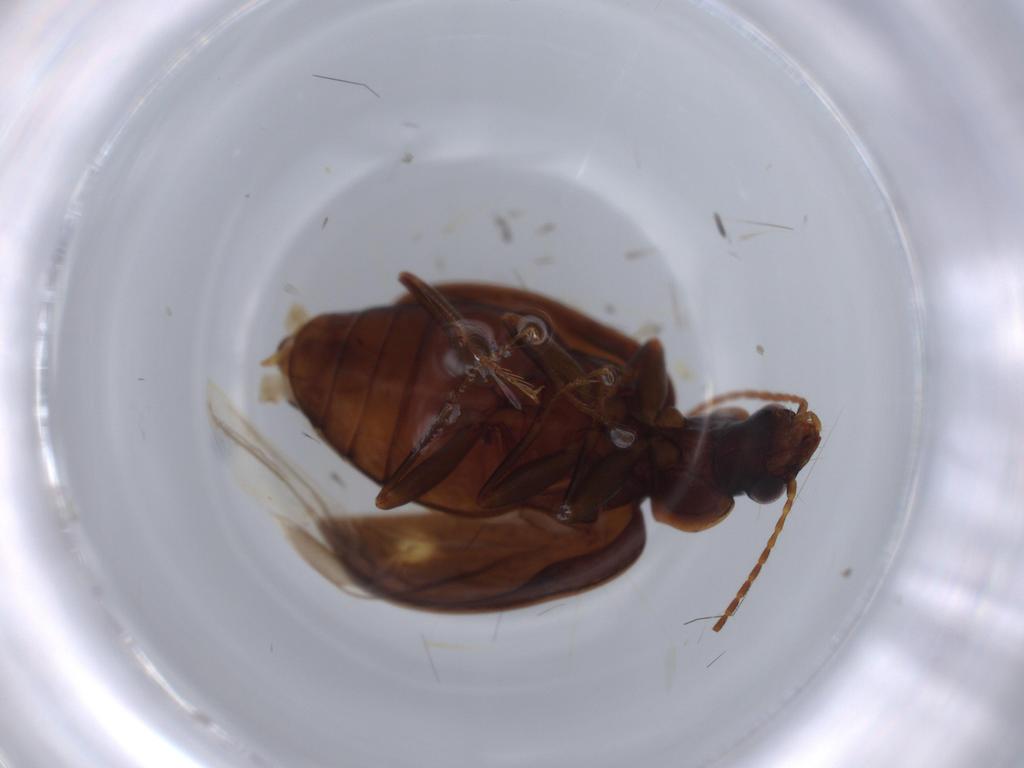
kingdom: Animalia
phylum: Arthropoda
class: Insecta
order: Coleoptera
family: Carabidae
